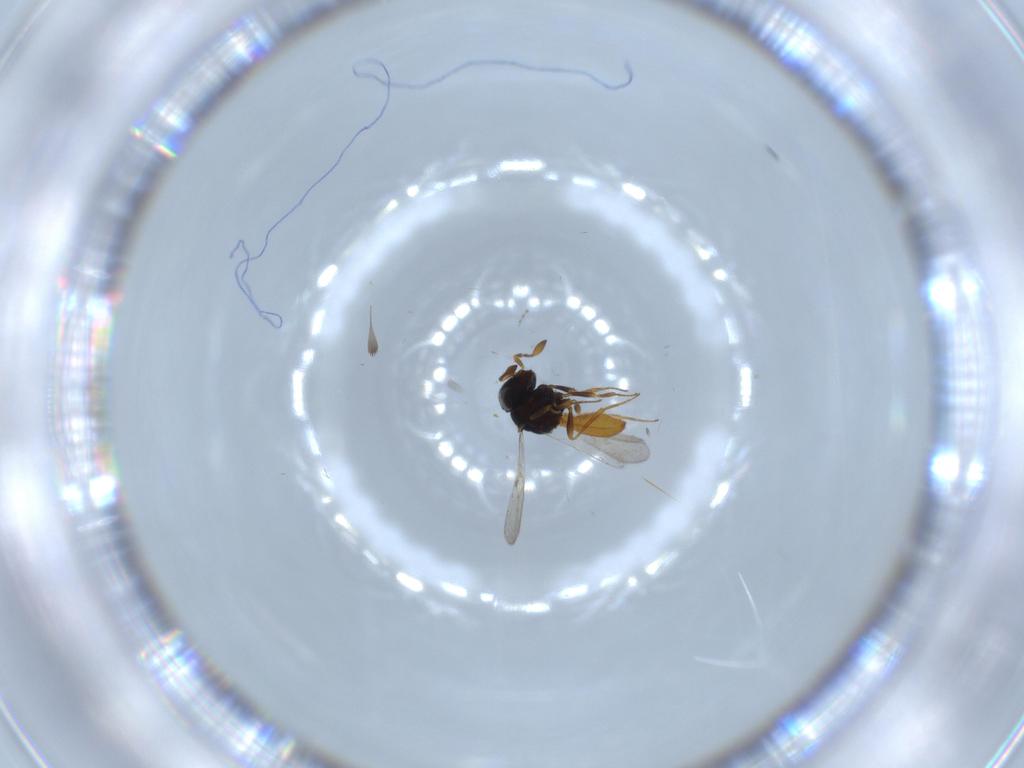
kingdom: Animalia
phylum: Arthropoda
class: Insecta
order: Hymenoptera
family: Scelionidae
